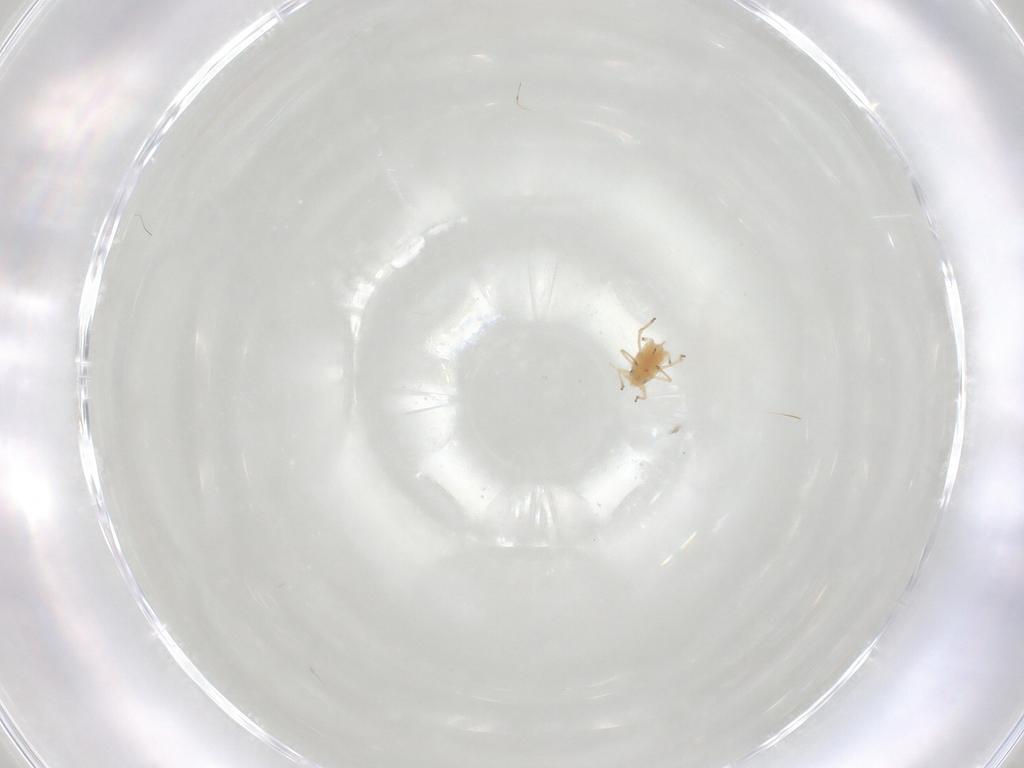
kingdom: Animalia
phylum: Arthropoda
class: Insecta
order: Hemiptera
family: Aphididae
